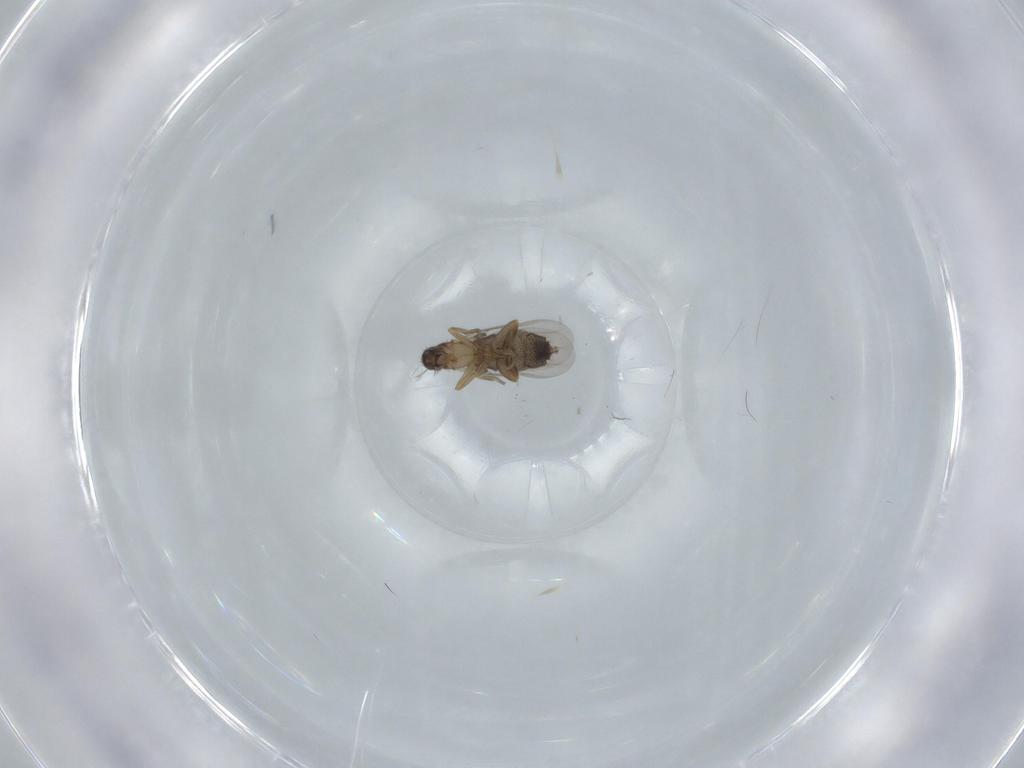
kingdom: Animalia
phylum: Arthropoda
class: Insecta
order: Diptera
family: Phoridae
